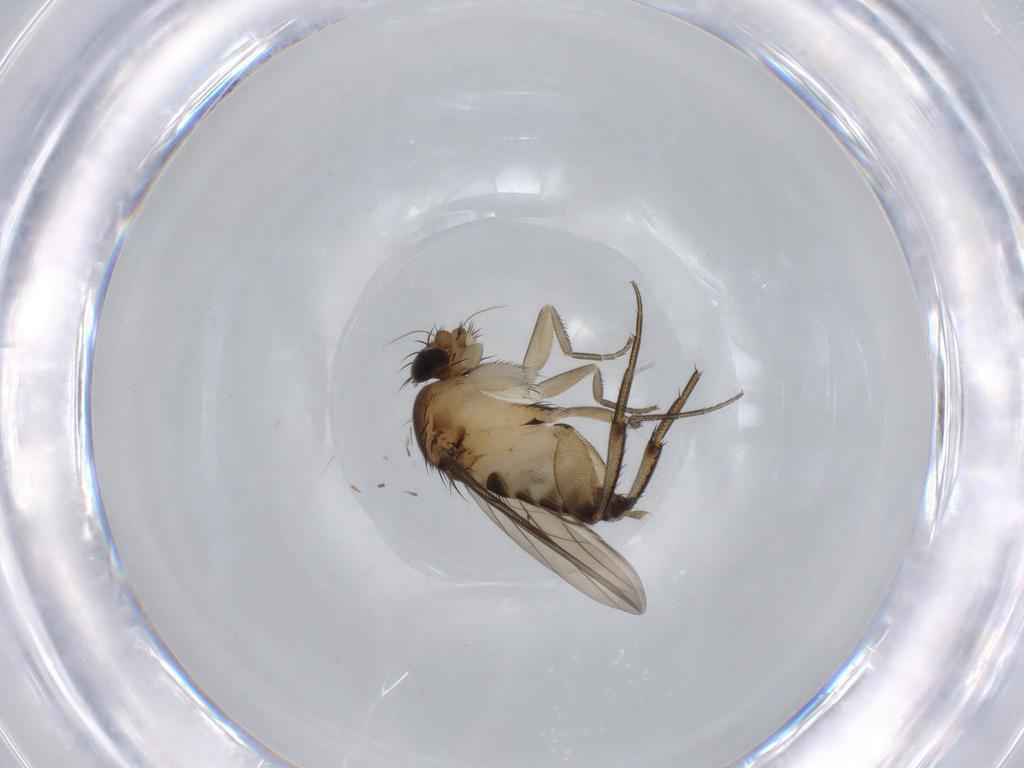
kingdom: Animalia
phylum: Arthropoda
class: Insecta
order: Diptera
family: Phoridae
